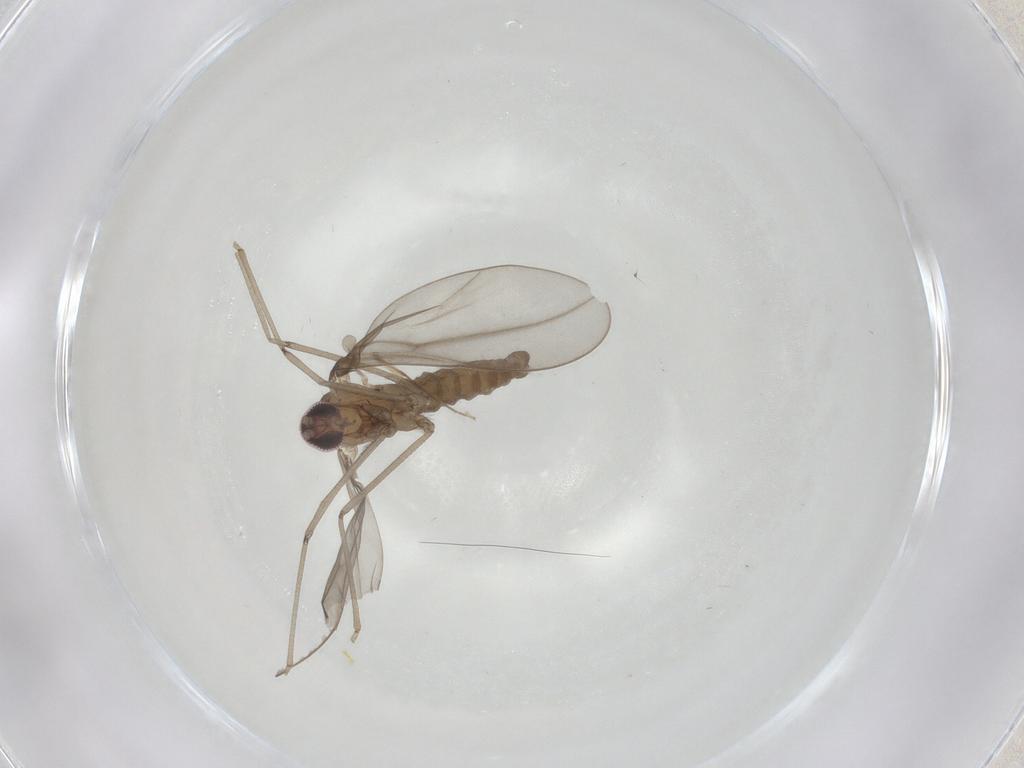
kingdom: Animalia
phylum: Arthropoda
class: Insecta
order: Diptera
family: Cecidomyiidae
